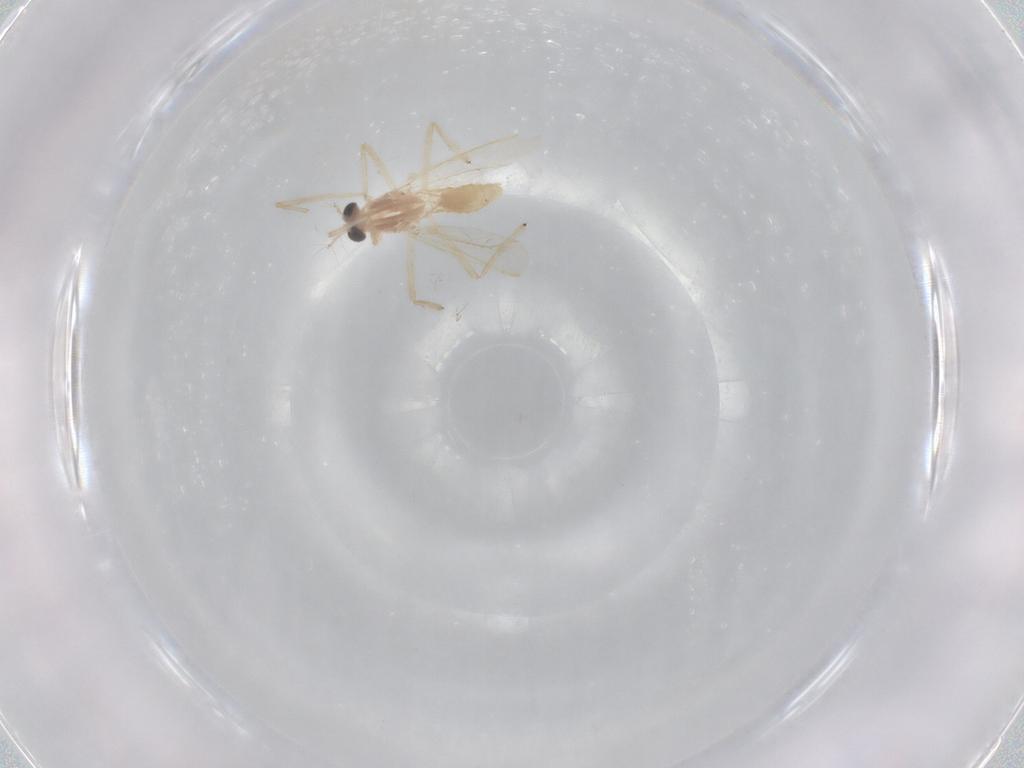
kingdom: Animalia
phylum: Arthropoda
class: Insecta
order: Diptera
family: Chironomidae
